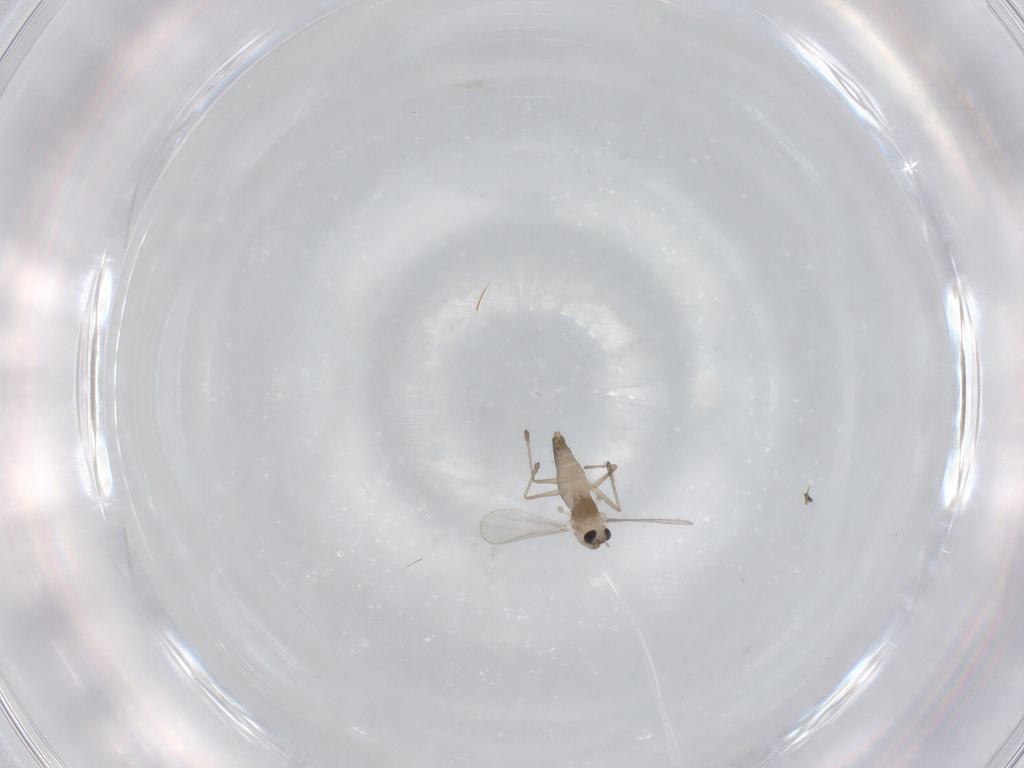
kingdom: Animalia
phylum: Arthropoda
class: Insecta
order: Diptera
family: Chironomidae
